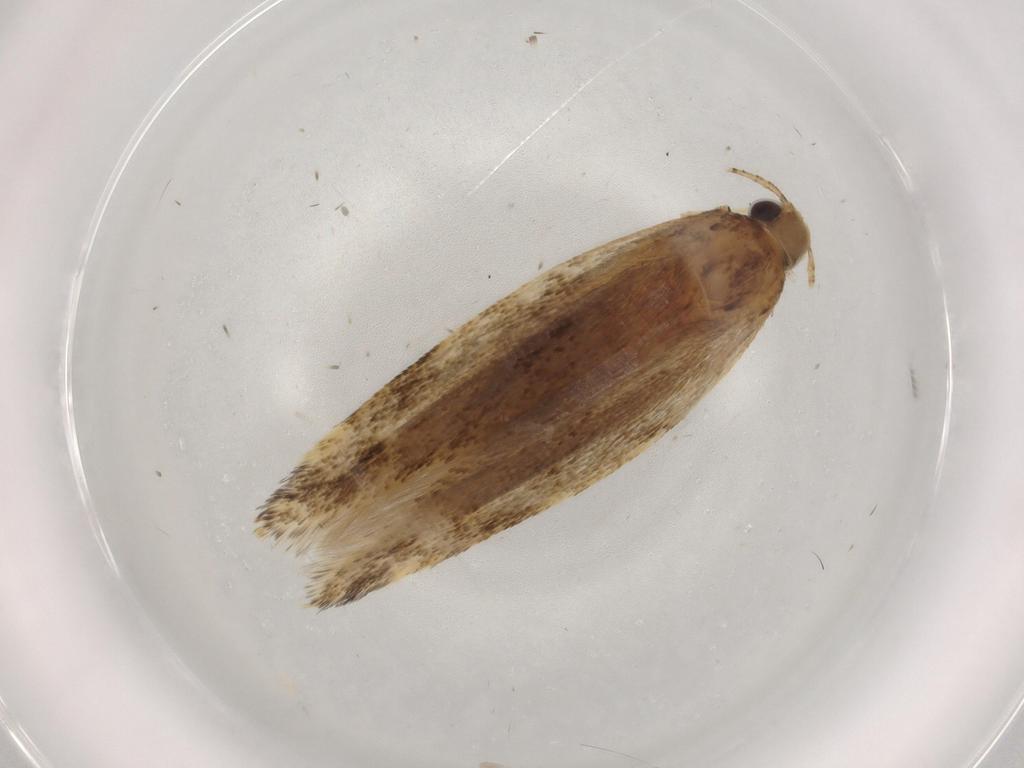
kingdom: Animalia
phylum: Arthropoda
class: Insecta
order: Lepidoptera
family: Gelechiidae
